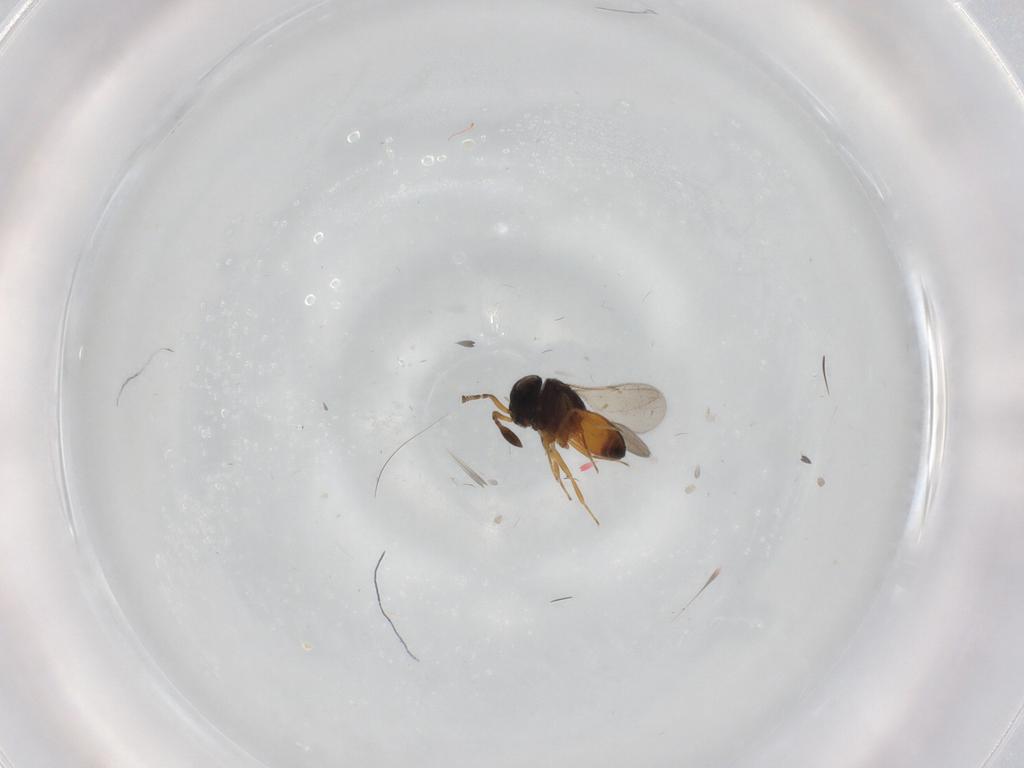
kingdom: Animalia
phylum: Arthropoda
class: Insecta
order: Hymenoptera
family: Scelionidae
